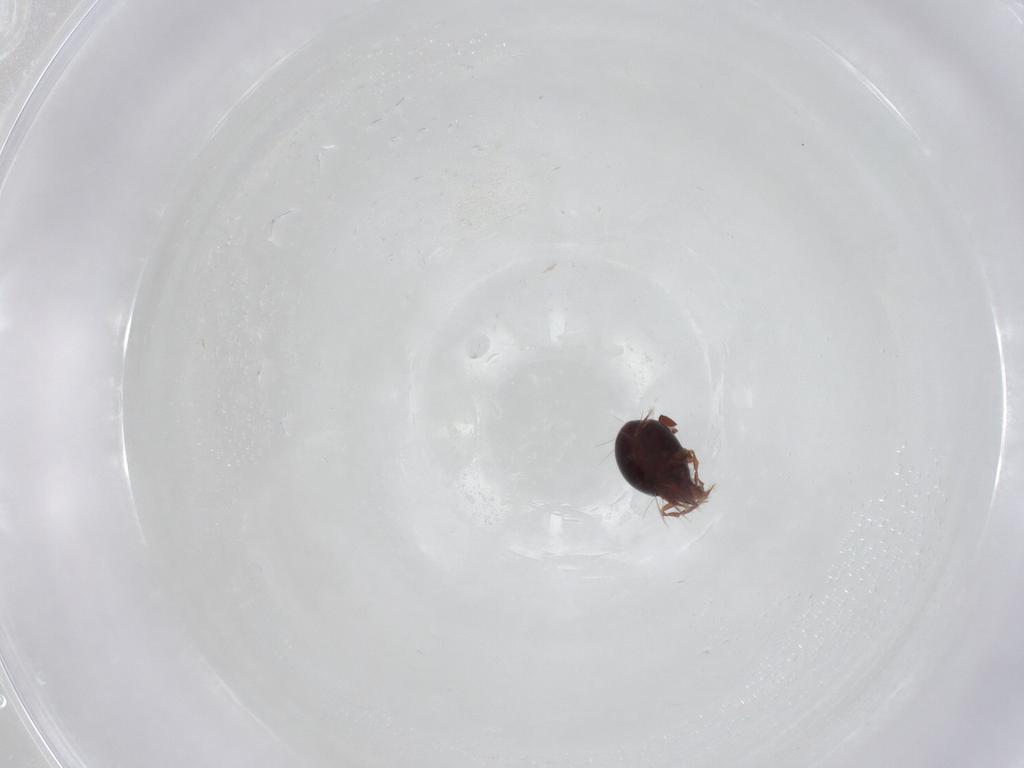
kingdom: Animalia
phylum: Arthropoda
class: Arachnida
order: Sarcoptiformes
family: Ceratoppiidae
